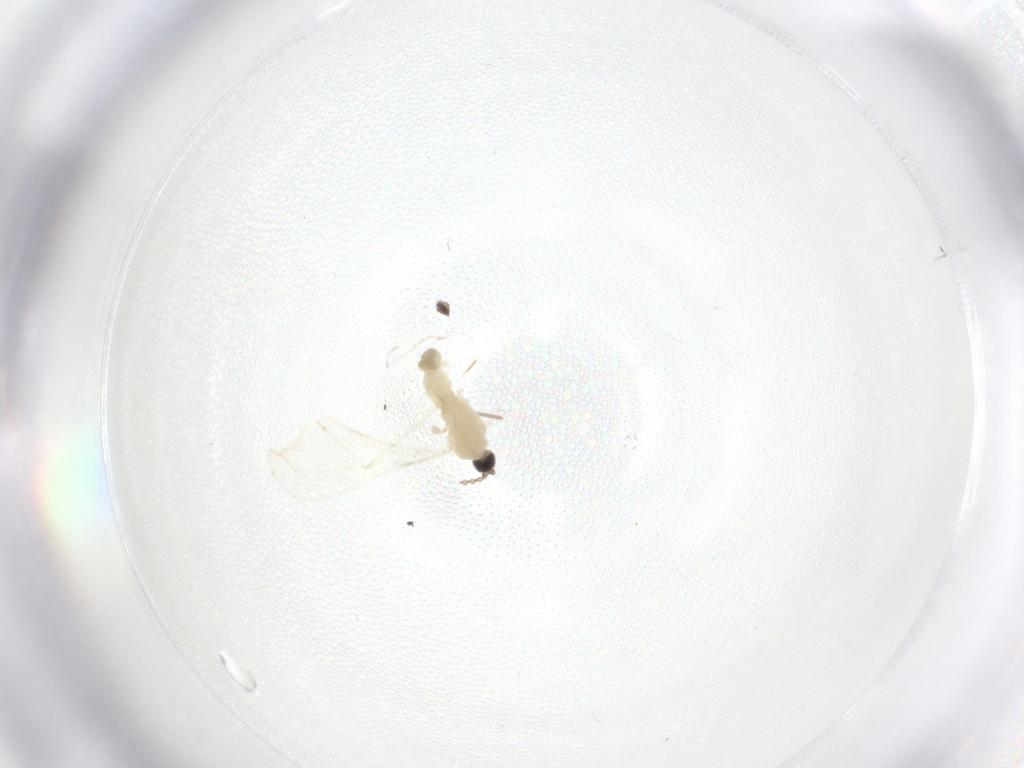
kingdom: Animalia
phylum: Arthropoda
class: Insecta
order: Diptera
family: Cecidomyiidae
